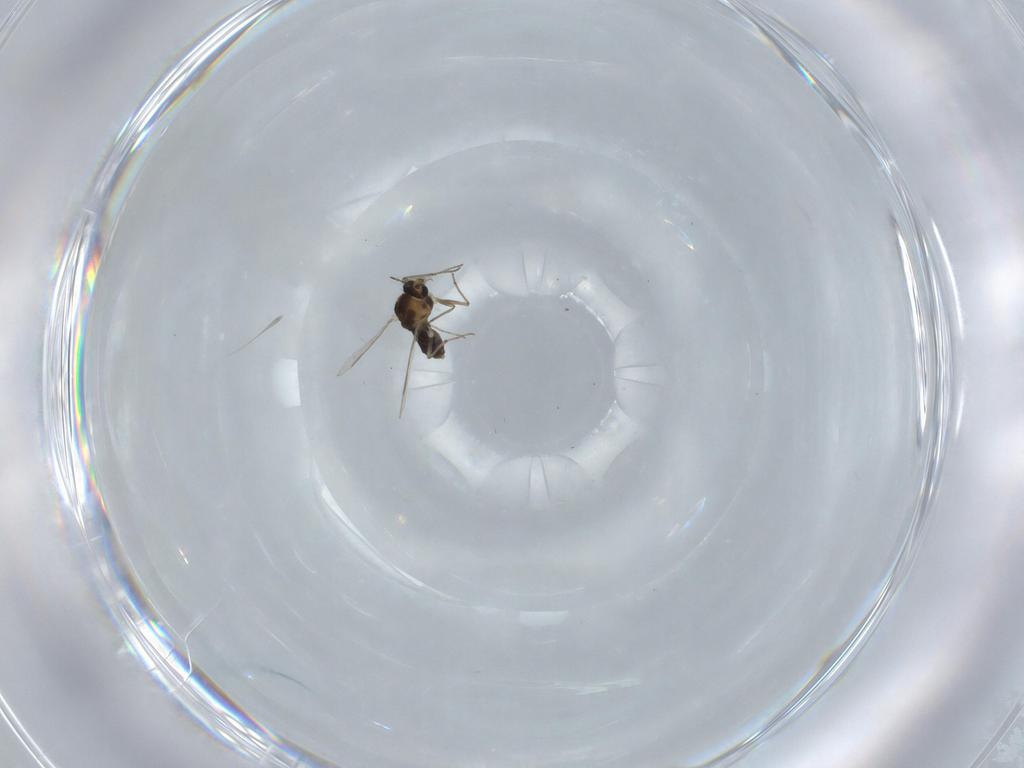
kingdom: Animalia
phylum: Arthropoda
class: Insecta
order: Diptera
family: Chironomidae
